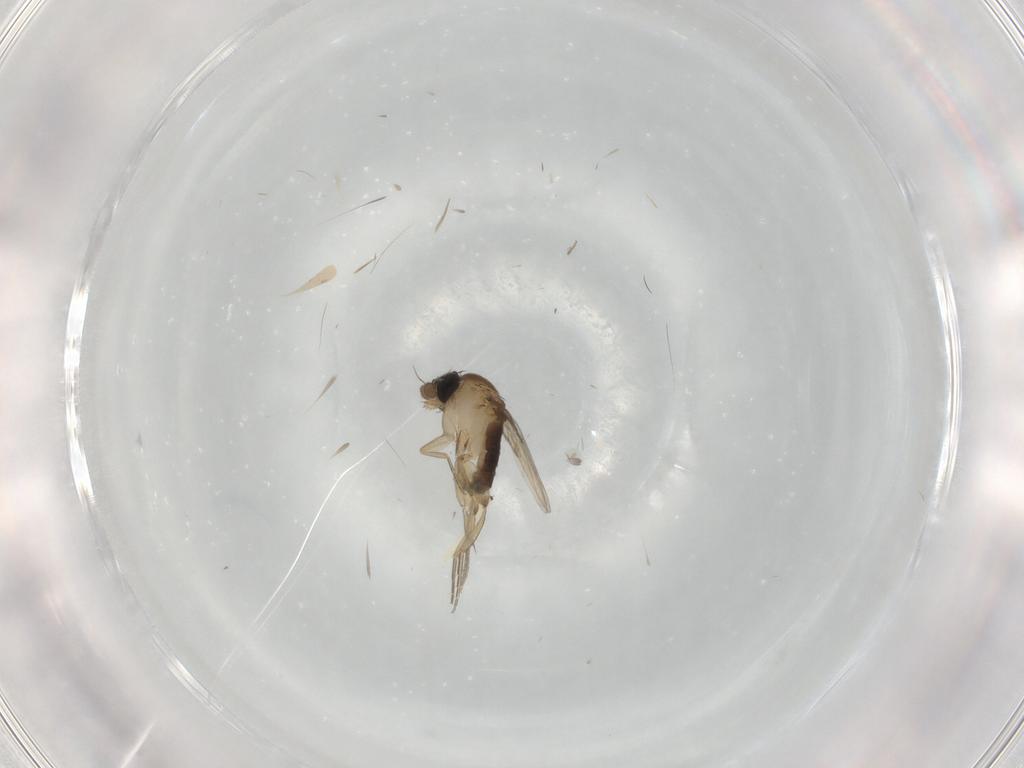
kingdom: Animalia
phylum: Arthropoda
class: Insecta
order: Diptera
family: Phoridae
